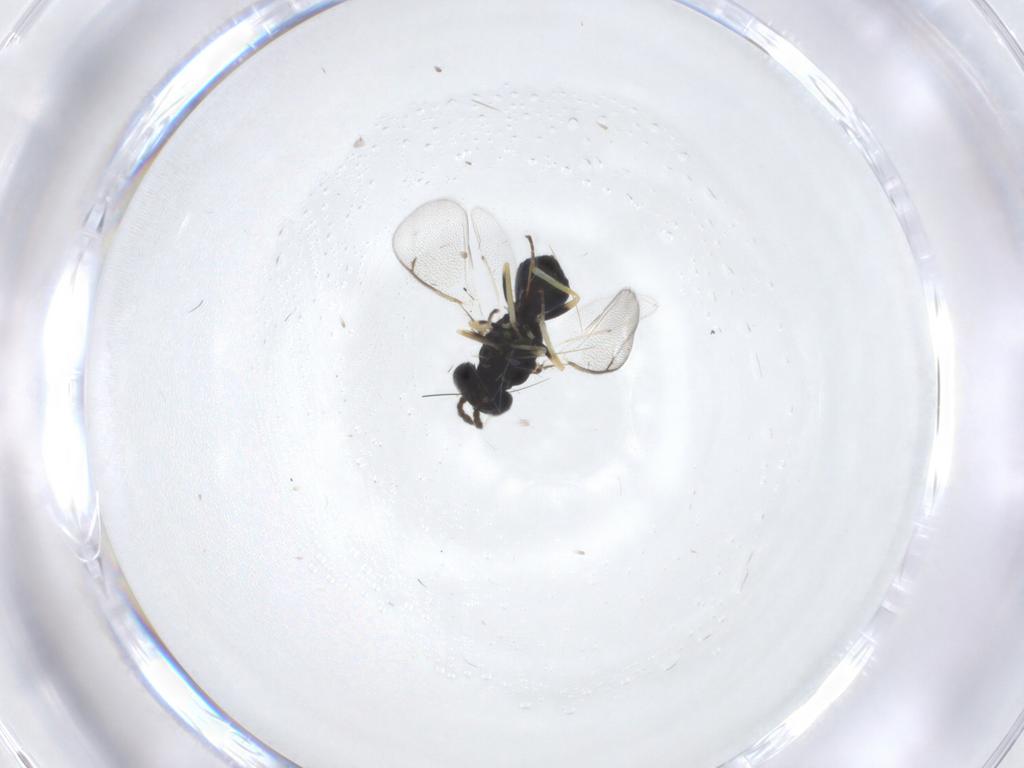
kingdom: Animalia
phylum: Arthropoda
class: Insecta
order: Hymenoptera
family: Eulophidae
